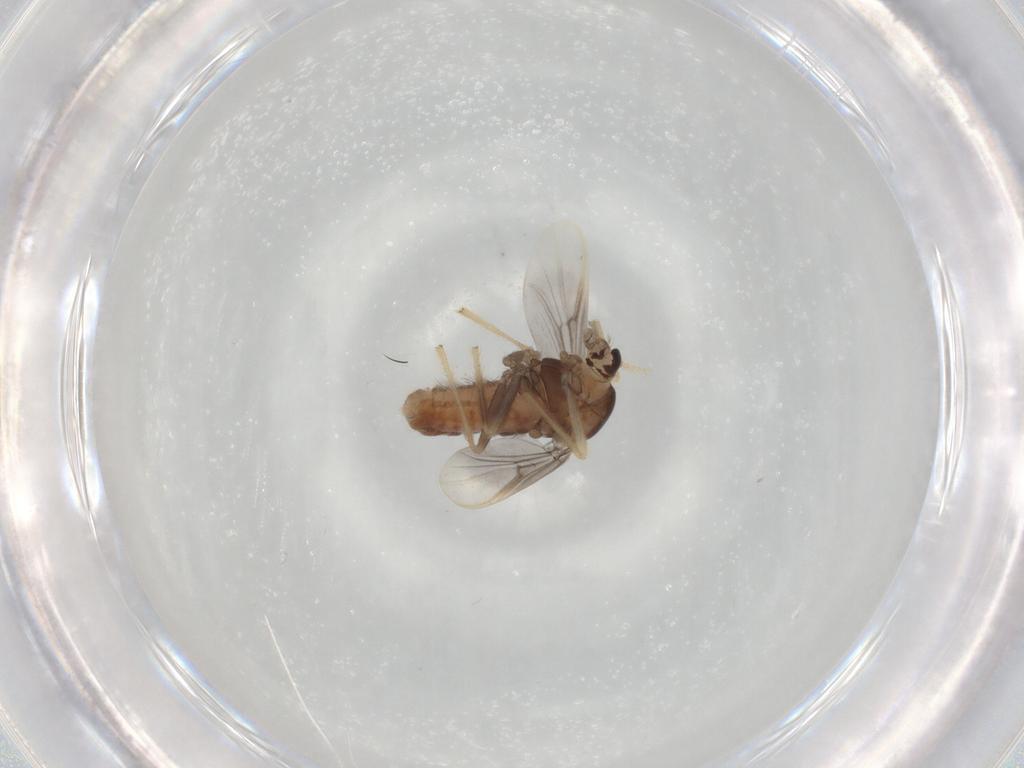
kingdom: Animalia
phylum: Arthropoda
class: Insecta
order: Diptera
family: Chironomidae
